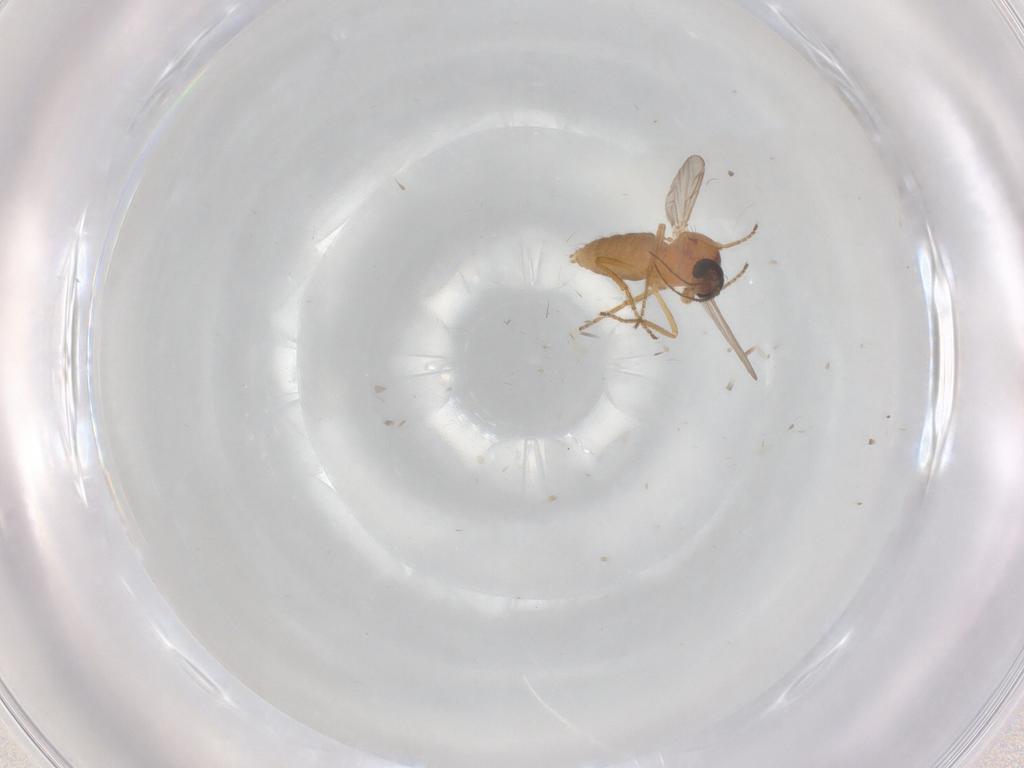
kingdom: Animalia
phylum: Arthropoda
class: Insecta
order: Diptera
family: Ceratopogonidae
